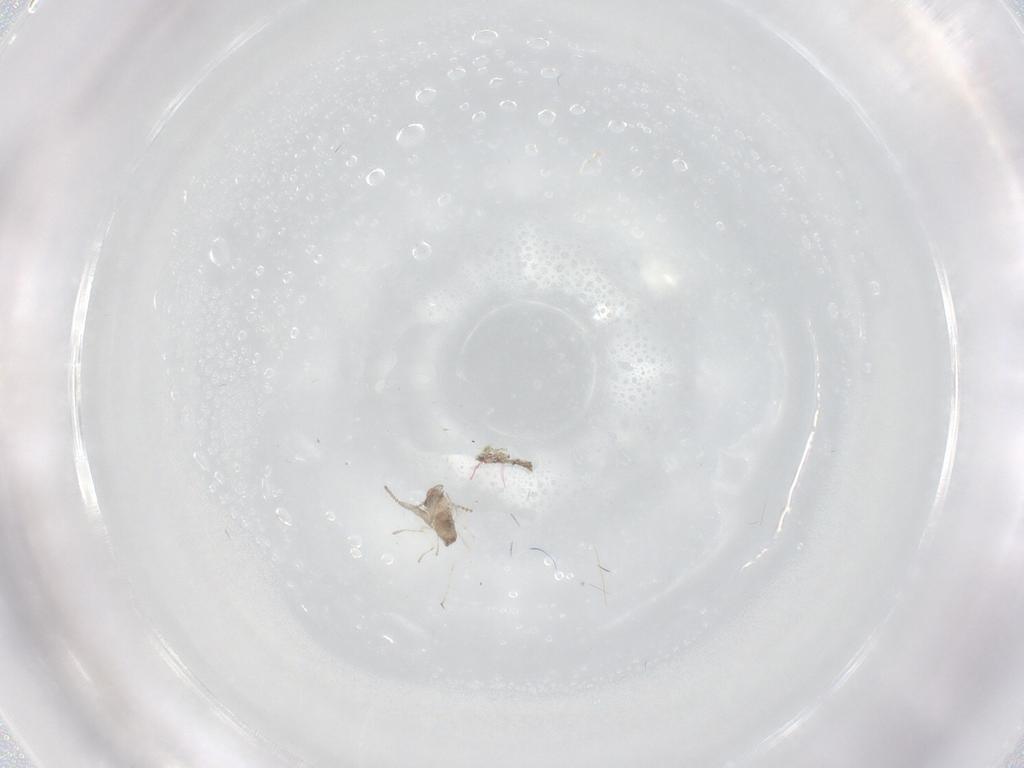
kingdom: Animalia
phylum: Arthropoda
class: Insecta
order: Diptera
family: Cecidomyiidae
